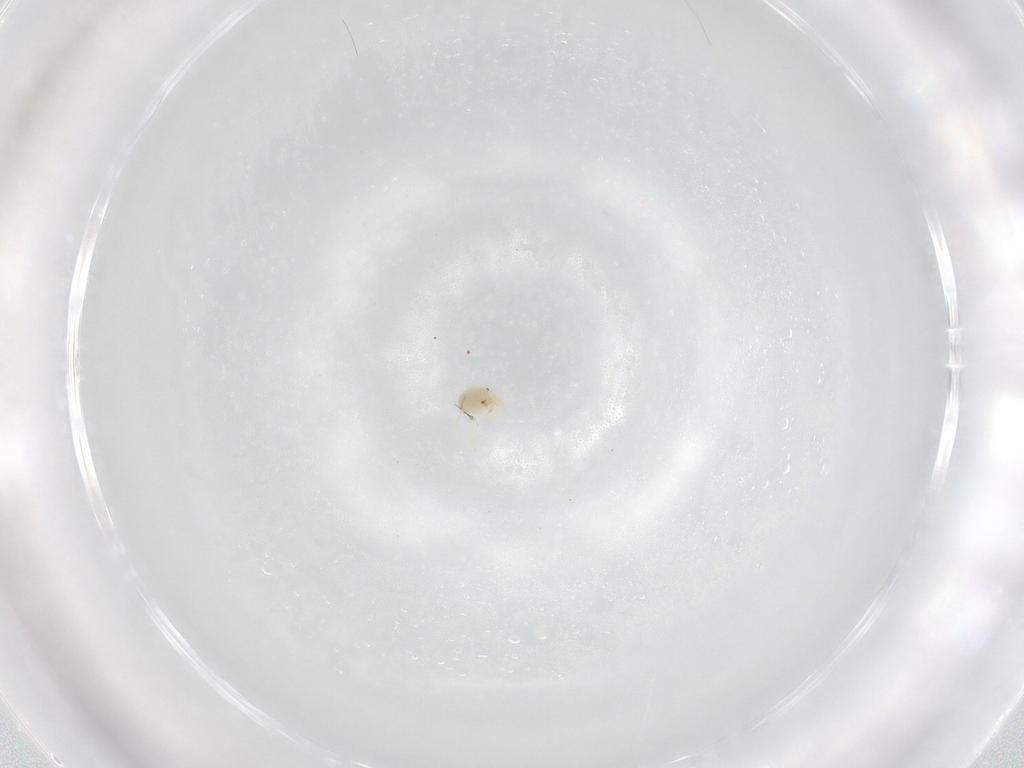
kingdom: Animalia
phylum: Arthropoda
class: Arachnida
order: Trombidiformes
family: Sperchontidae
